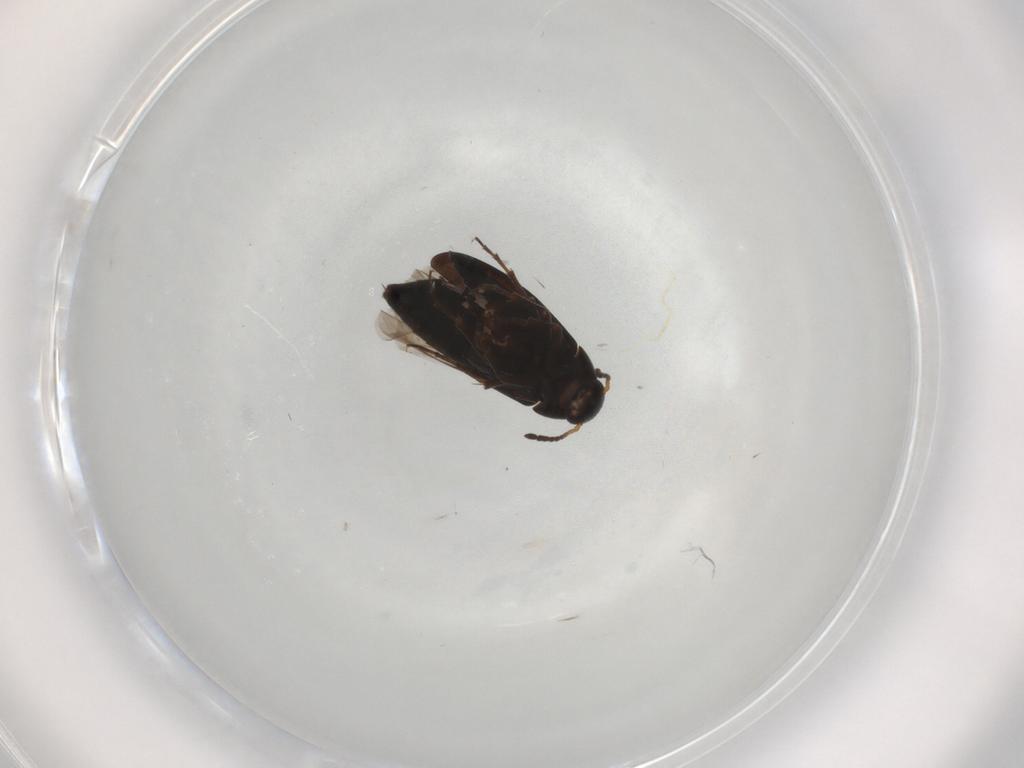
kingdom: Animalia
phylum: Arthropoda
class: Insecta
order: Coleoptera
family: Scraptiidae
